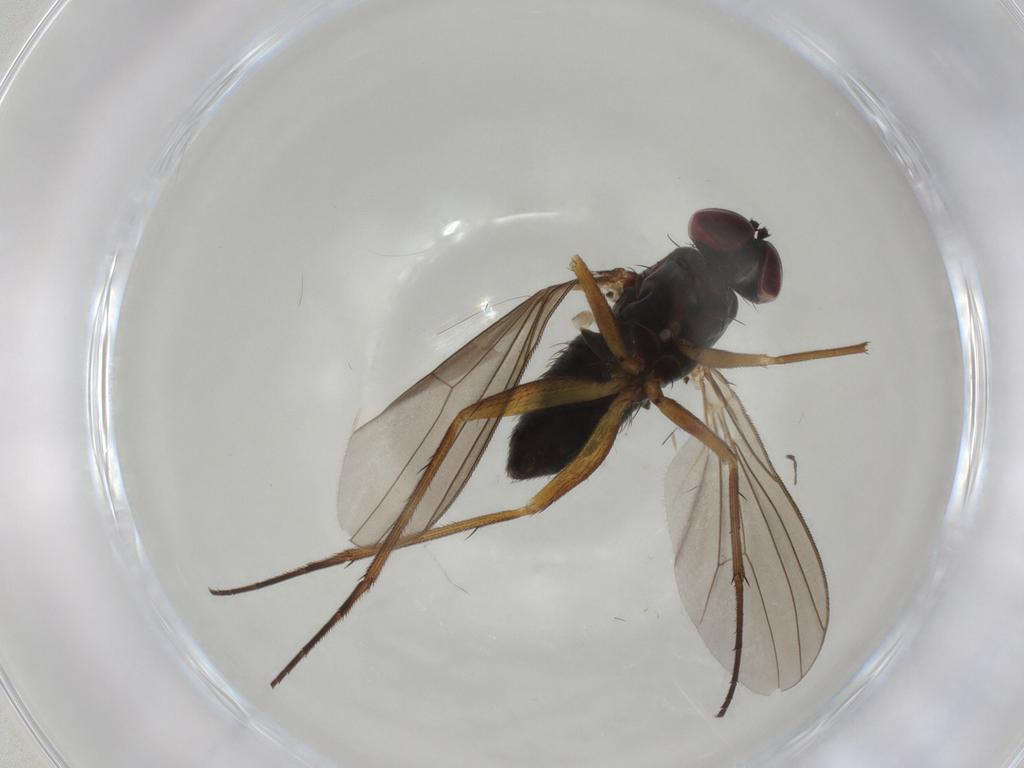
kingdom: Animalia
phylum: Arthropoda
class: Insecta
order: Diptera
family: Dolichopodidae
